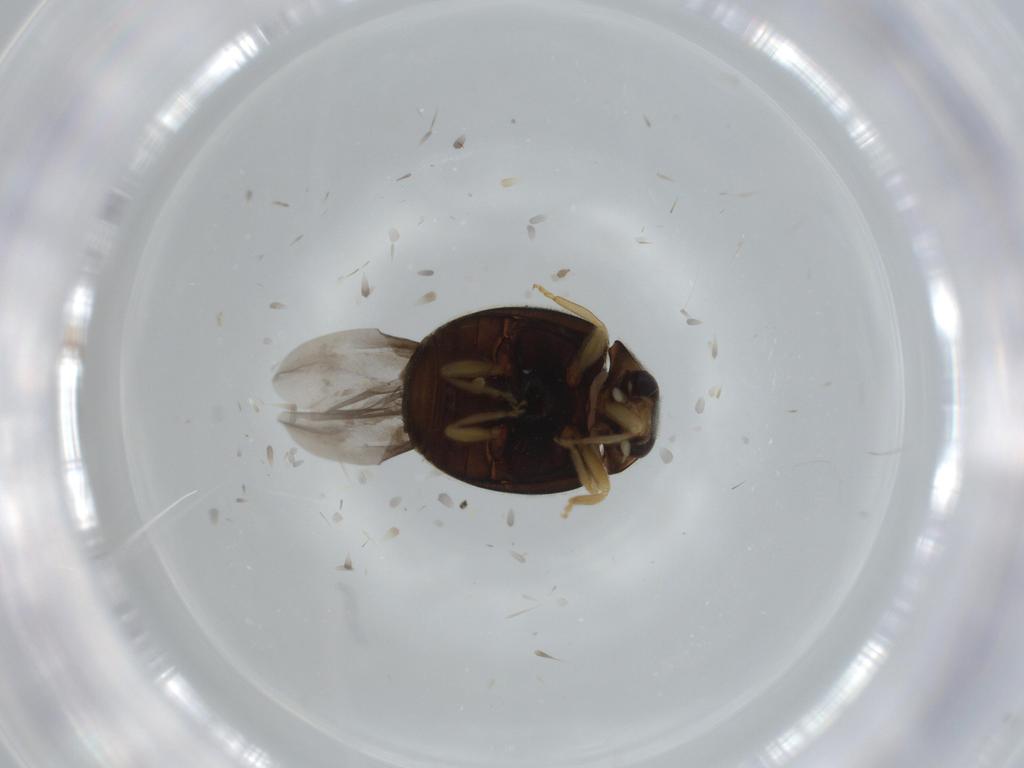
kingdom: Animalia
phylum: Arthropoda
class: Insecta
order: Coleoptera
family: Coccinellidae
